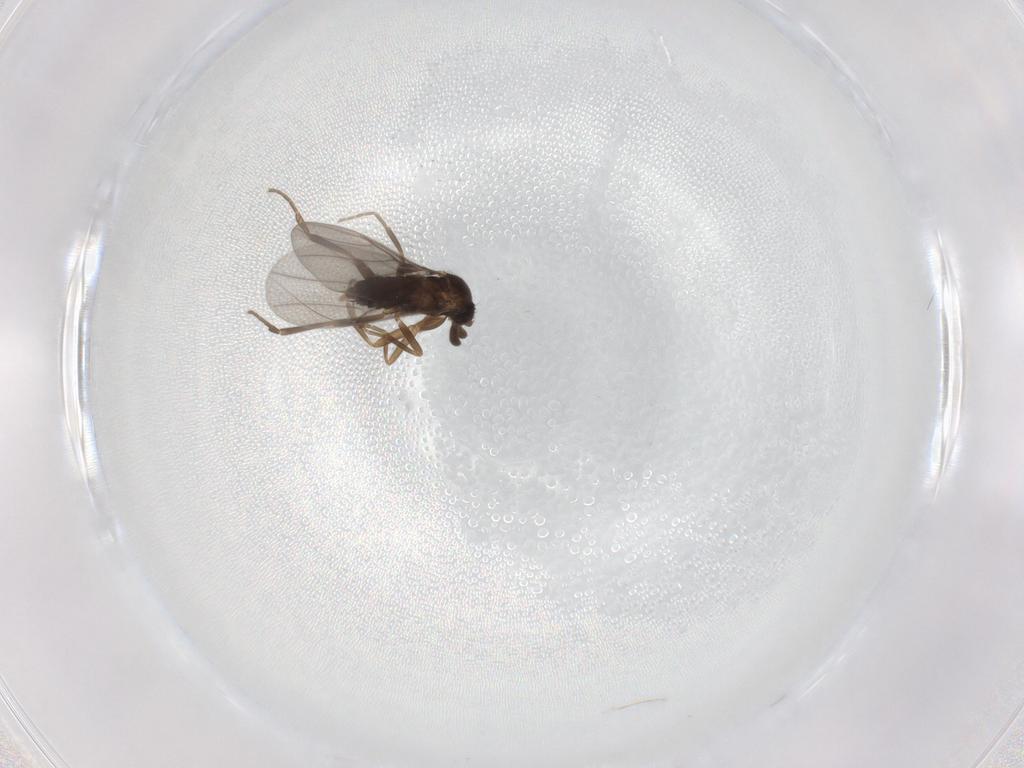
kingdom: Animalia
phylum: Arthropoda
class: Insecta
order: Diptera
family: Phoridae
